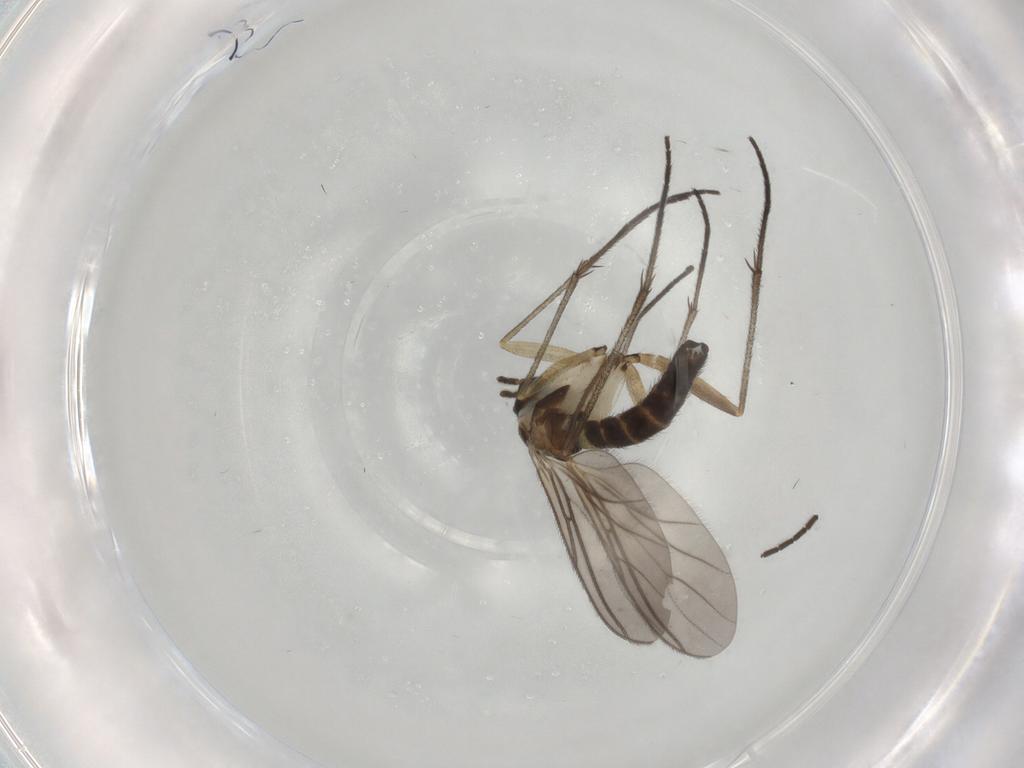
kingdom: Animalia
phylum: Arthropoda
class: Insecta
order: Diptera
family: Sciaridae
